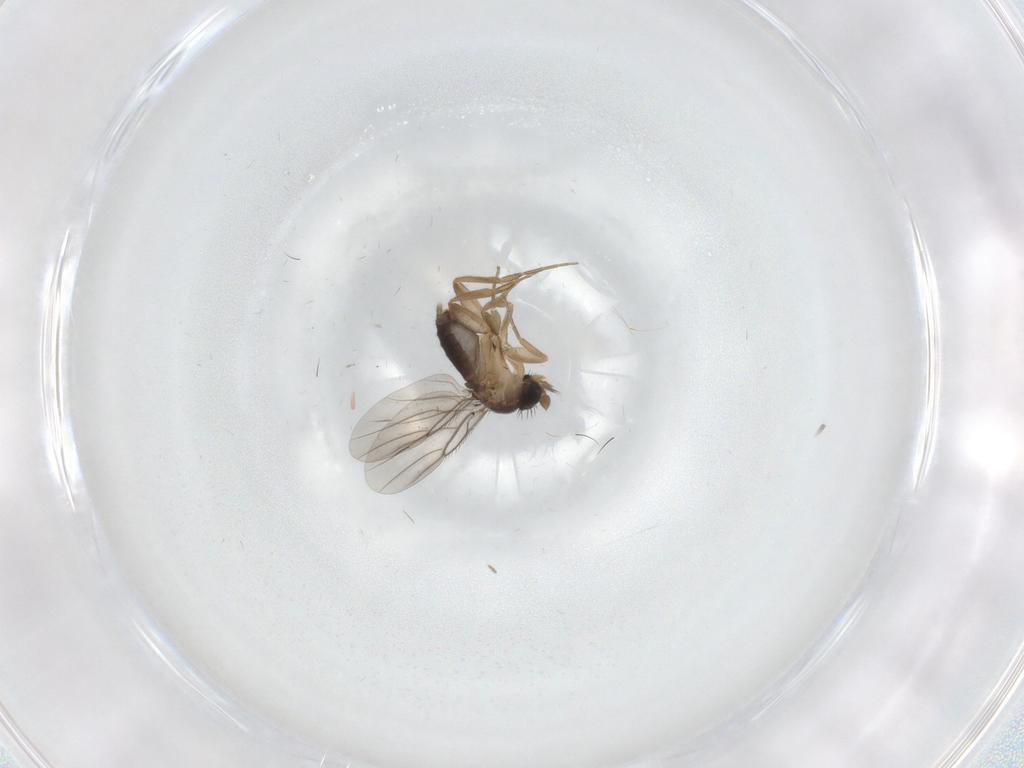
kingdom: Animalia
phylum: Arthropoda
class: Insecta
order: Diptera
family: Phoridae
